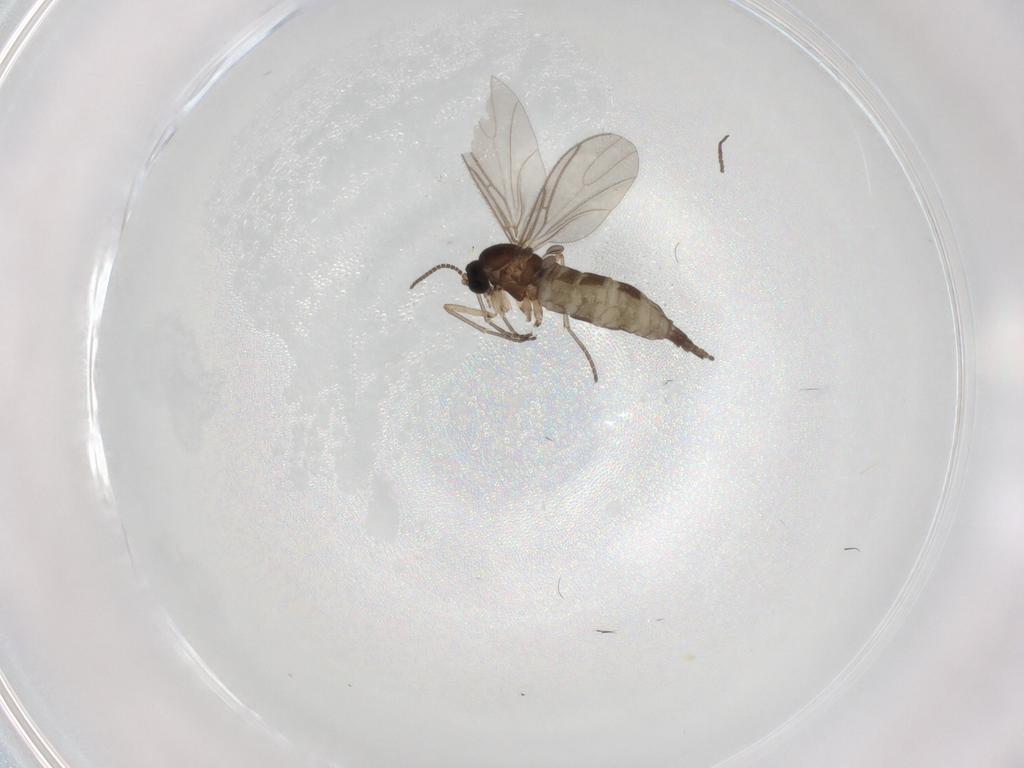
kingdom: Animalia
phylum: Arthropoda
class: Insecta
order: Diptera
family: Sciaridae
